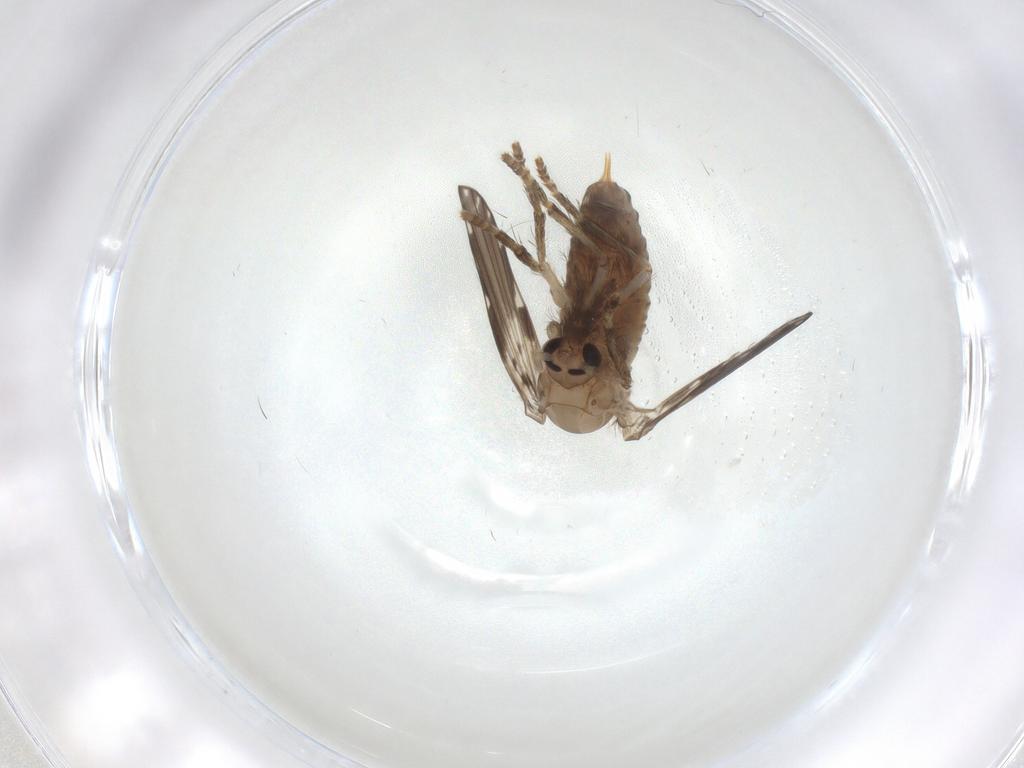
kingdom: Animalia
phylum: Arthropoda
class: Insecta
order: Diptera
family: Psychodidae
